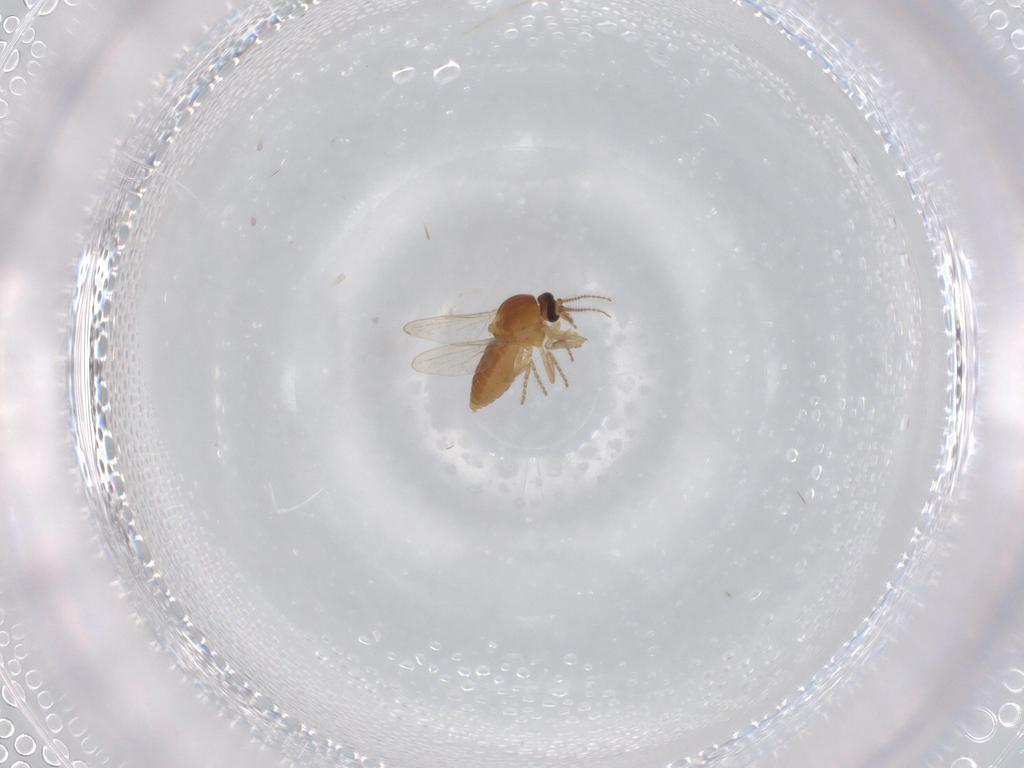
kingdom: Animalia
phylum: Arthropoda
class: Insecta
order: Diptera
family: Ceratopogonidae
